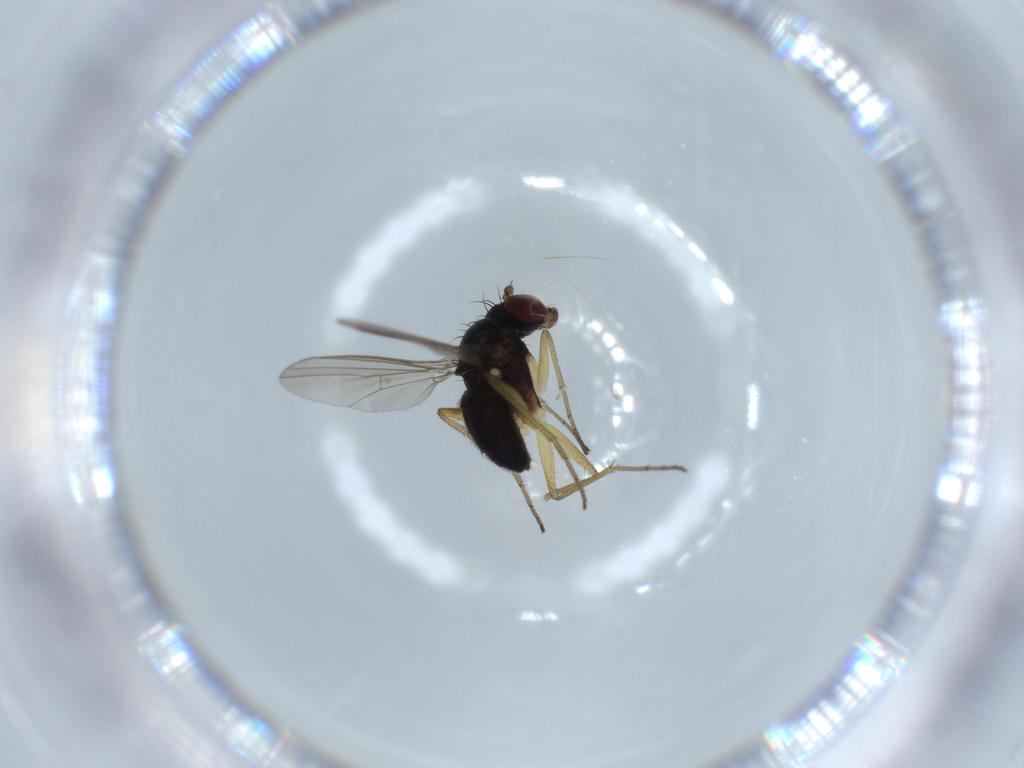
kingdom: Animalia
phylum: Arthropoda
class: Insecta
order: Diptera
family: Dolichopodidae
